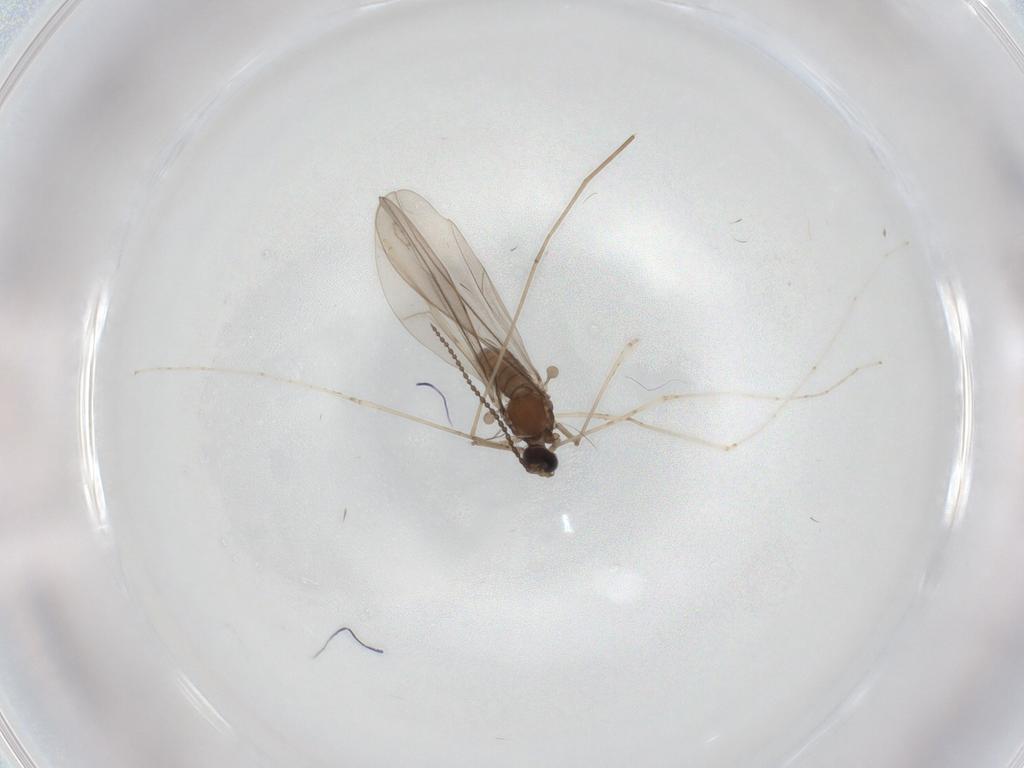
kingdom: Animalia
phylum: Arthropoda
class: Insecta
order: Diptera
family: Cecidomyiidae
